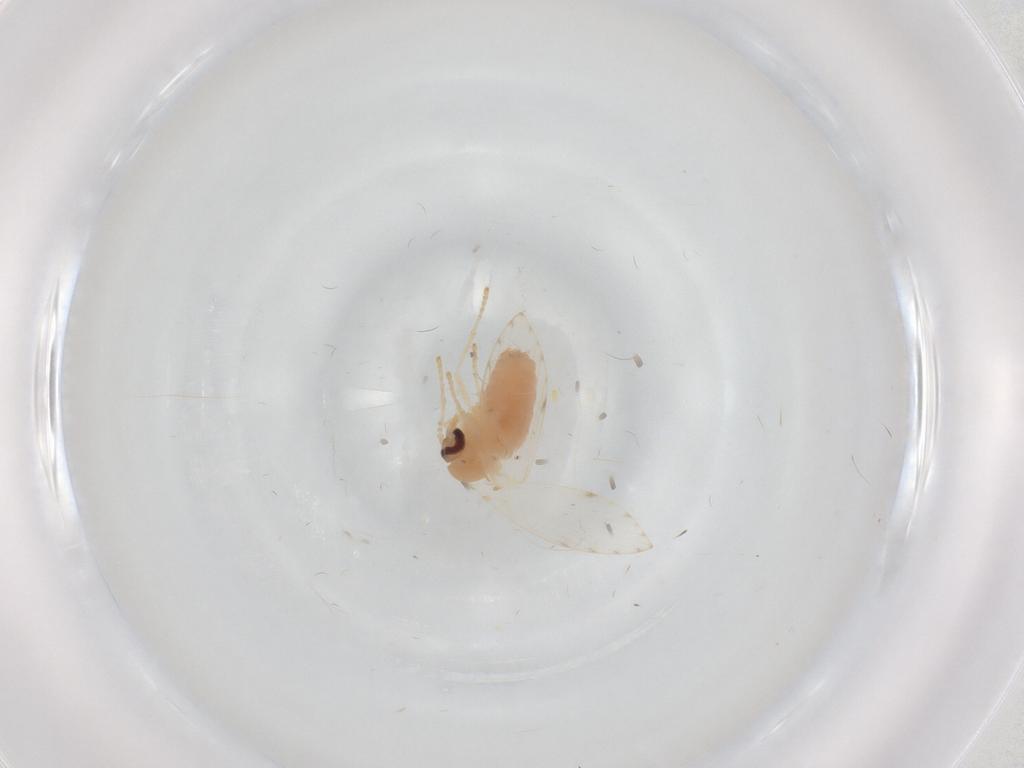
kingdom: Animalia
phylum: Arthropoda
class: Insecta
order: Diptera
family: Psychodidae
